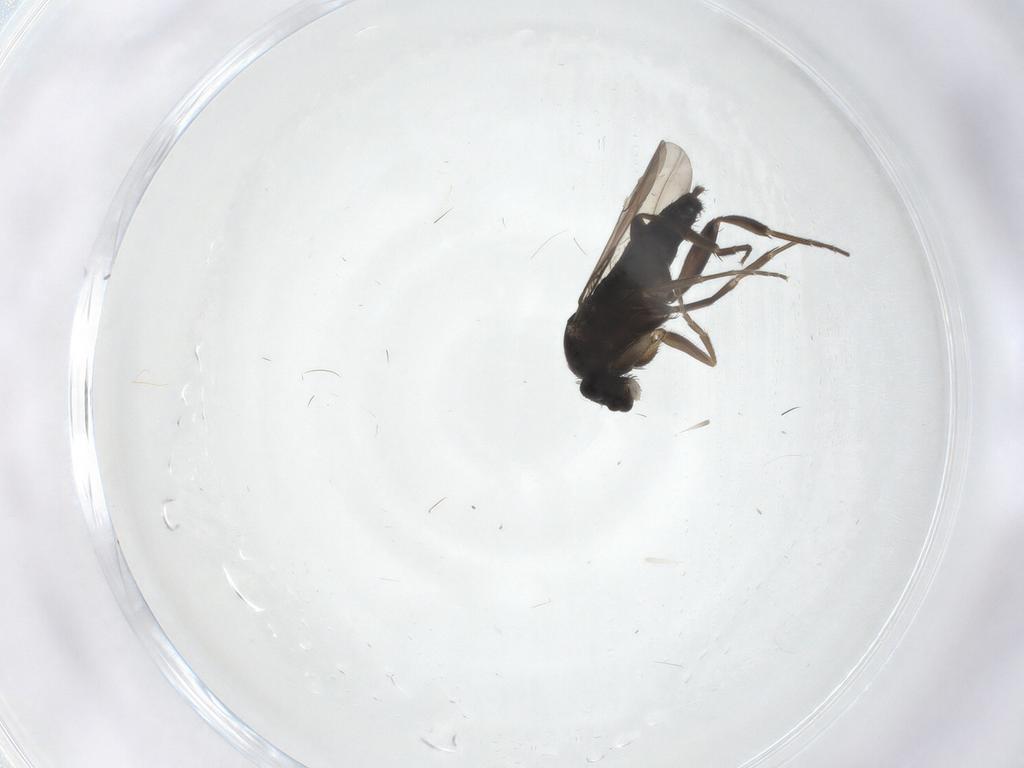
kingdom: Animalia
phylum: Arthropoda
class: Insecta
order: Diptera
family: Phoridae
